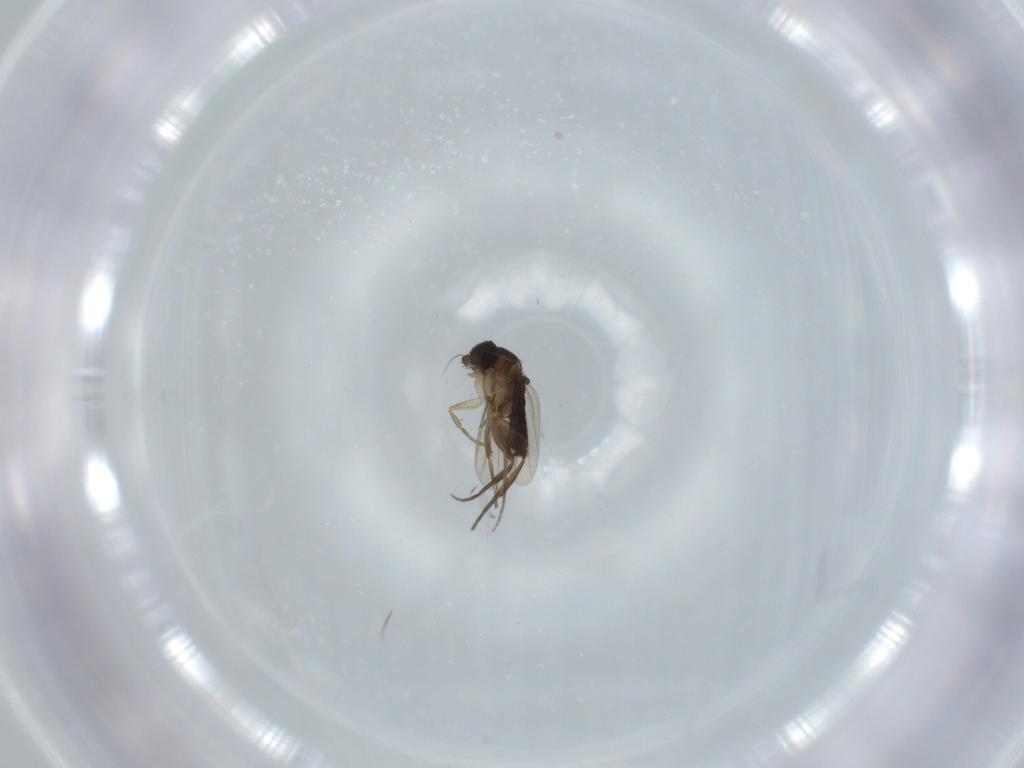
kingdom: Animalia
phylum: Arthropoda
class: Insecta
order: Diptera
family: Phoridae
